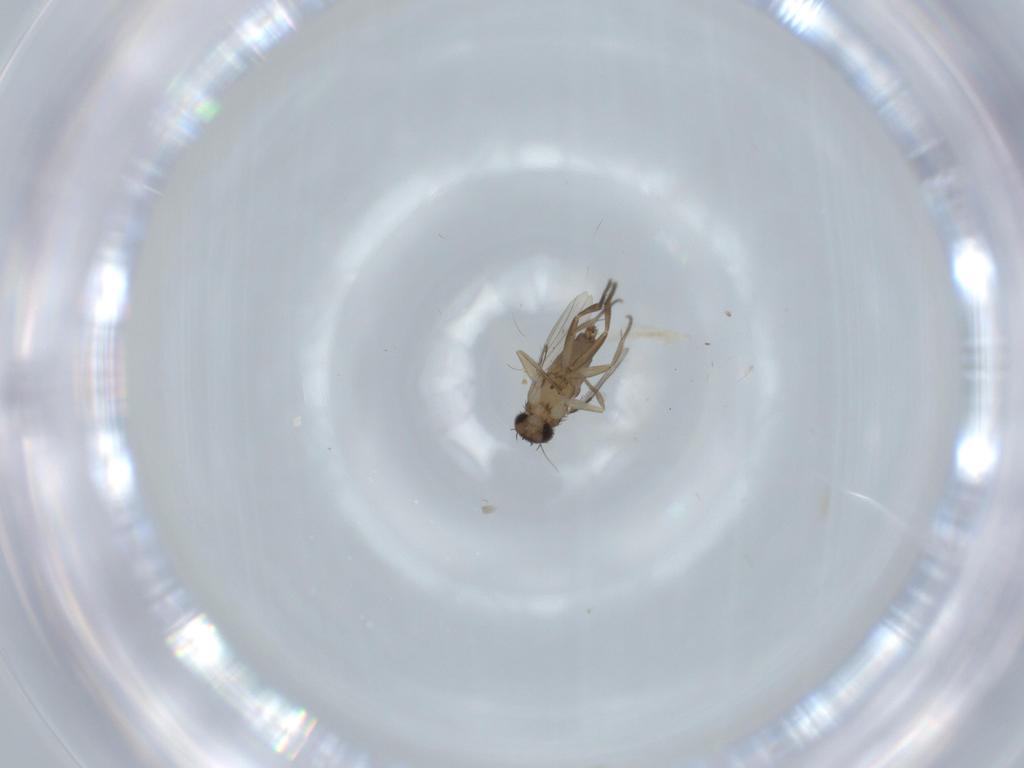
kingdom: Animalia
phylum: Arthropoda
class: Insecta
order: Diptera
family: Phoridae
